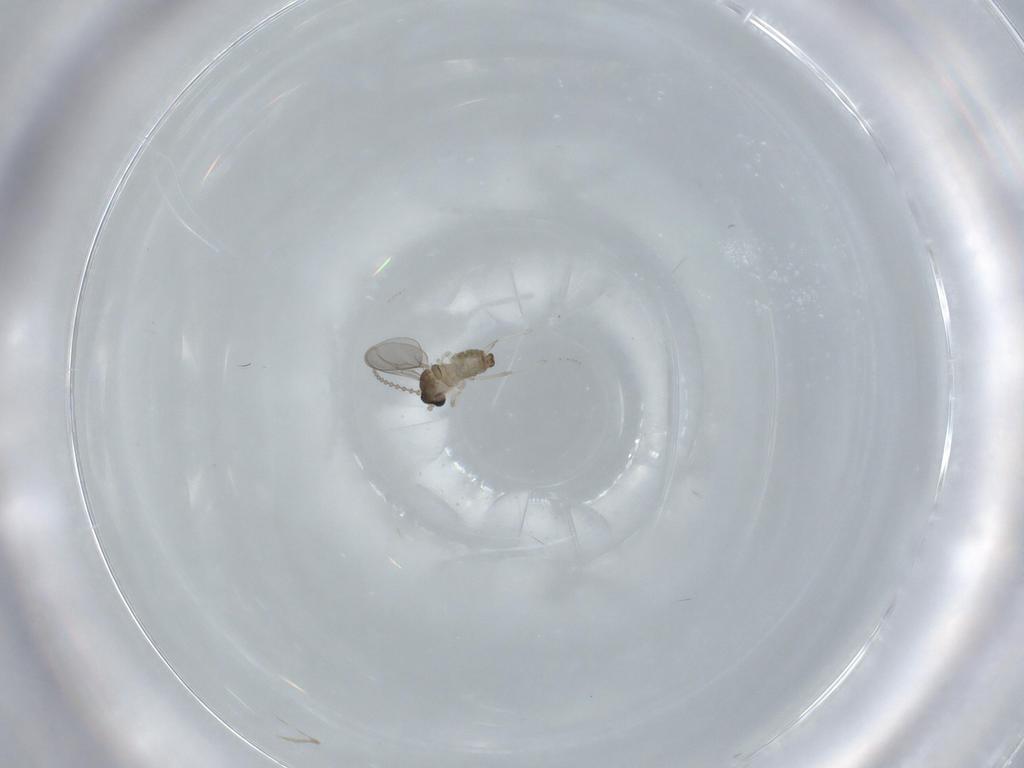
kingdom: Animalia
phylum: Arthropoda
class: Insecta
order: Diptera
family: Cecidomyiidae
